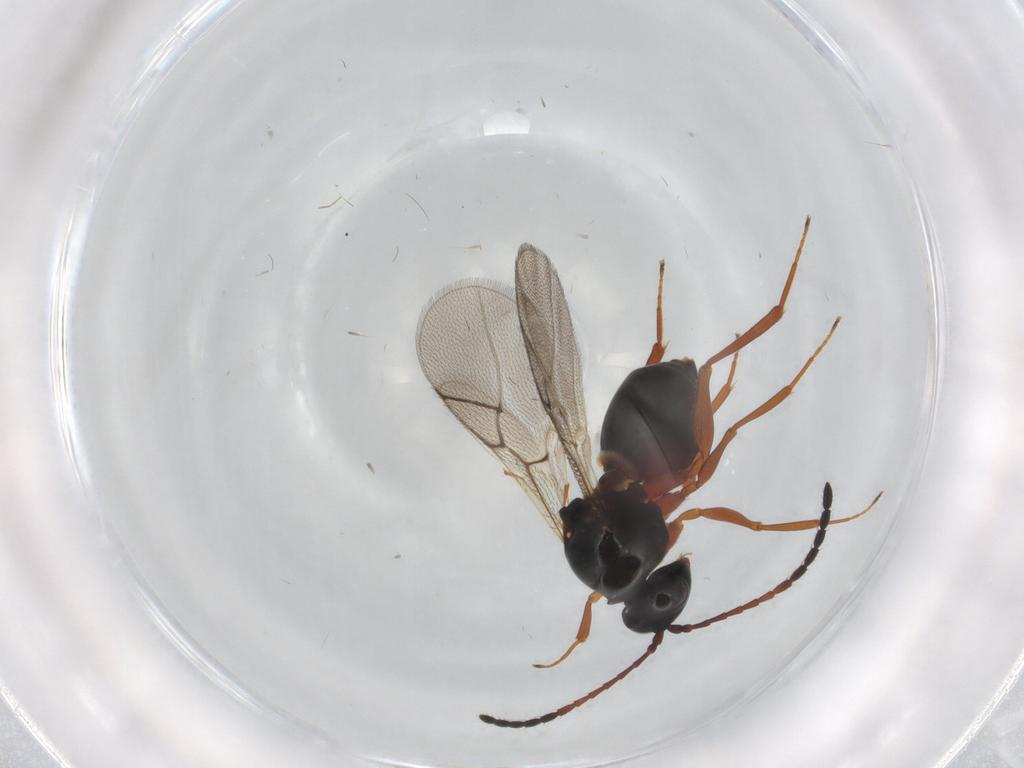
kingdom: Animalia
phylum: Arthropoda
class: Insecta
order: Hymenoptera
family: Figitidae
